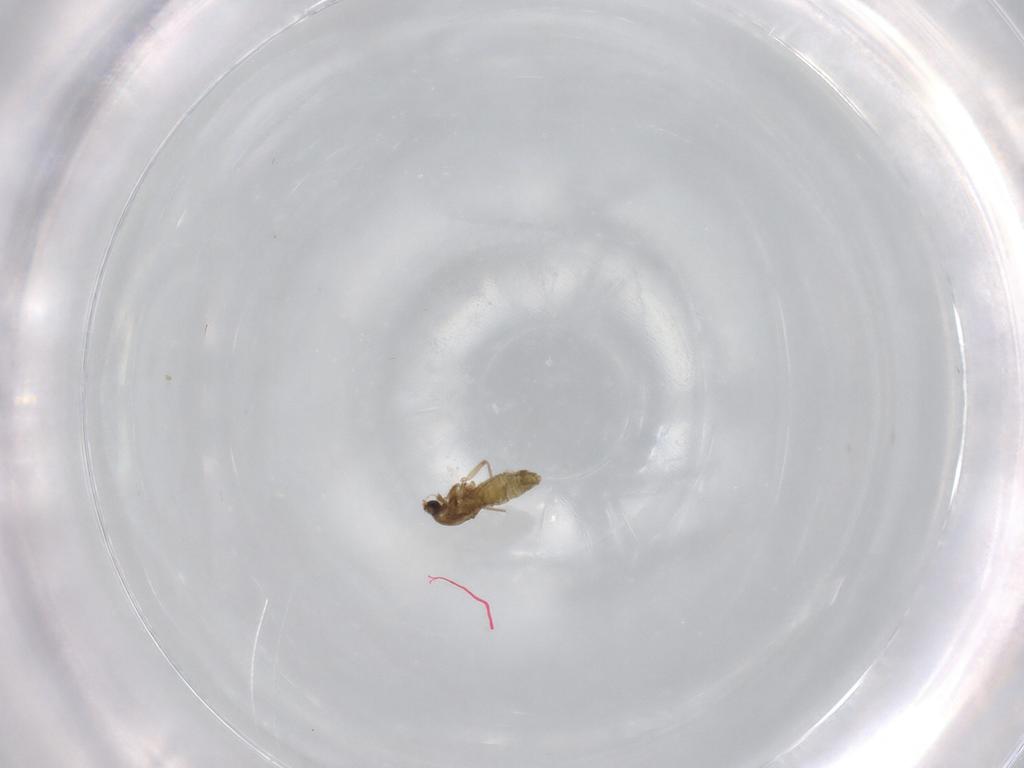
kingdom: Animalia
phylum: Arthropoda
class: Insecta
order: Diptera
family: Chironomidae
